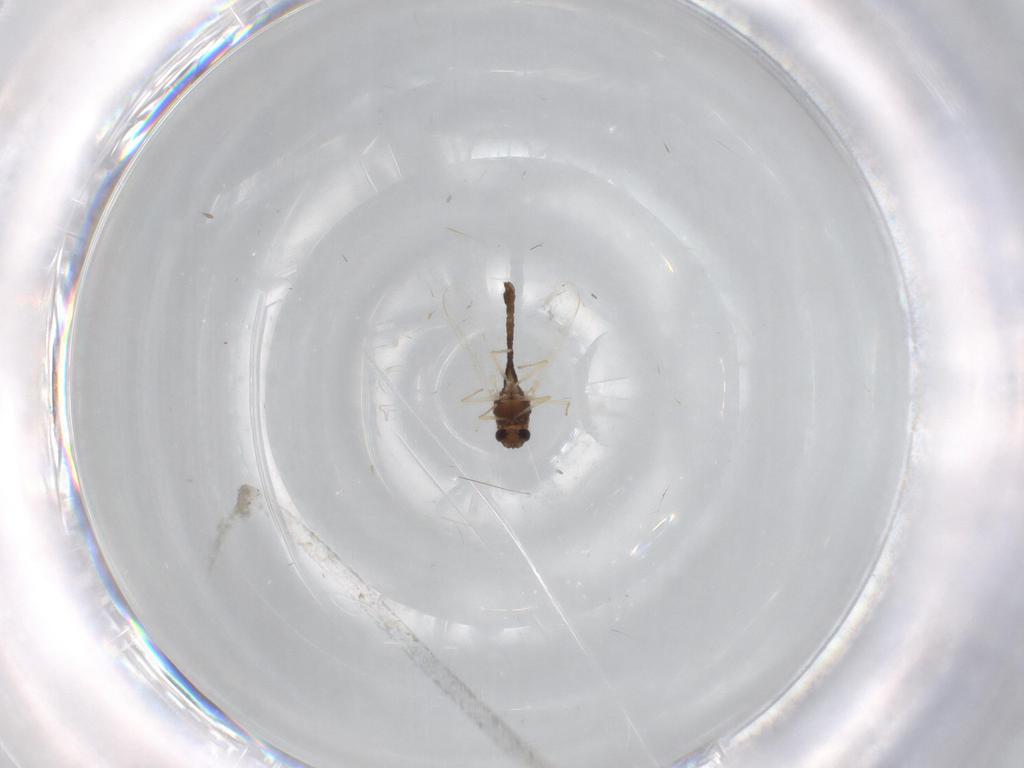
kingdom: Animalia
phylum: Arthropoda
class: Insecta
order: Diptera
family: Chironomidae
